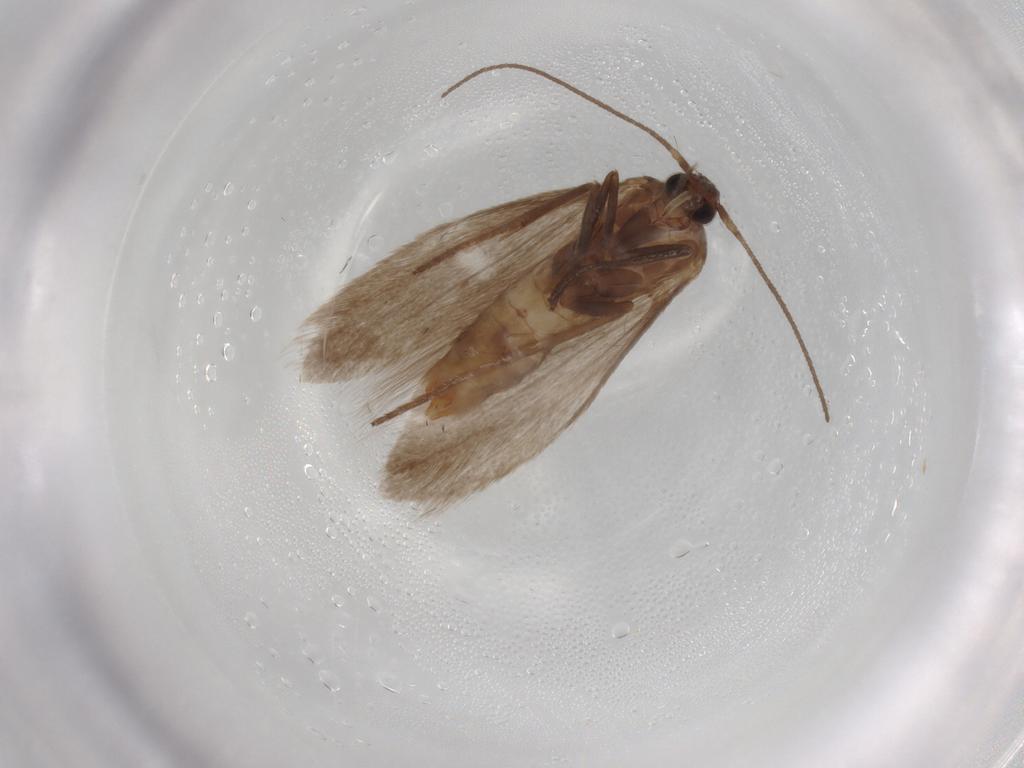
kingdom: Animalia
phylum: Arthropoda
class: Insecta
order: Lepidoptera
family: Limacodidae
